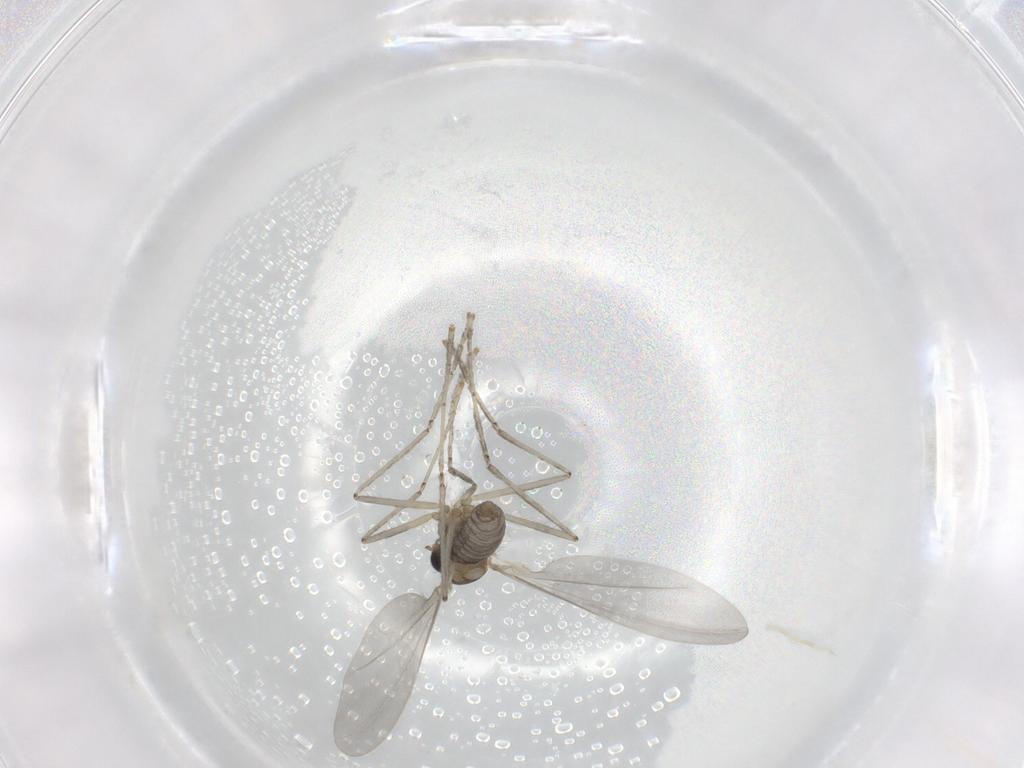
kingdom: Animalia
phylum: Arthropoda
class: Insecta
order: Diptera
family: Cecidomyiidae
